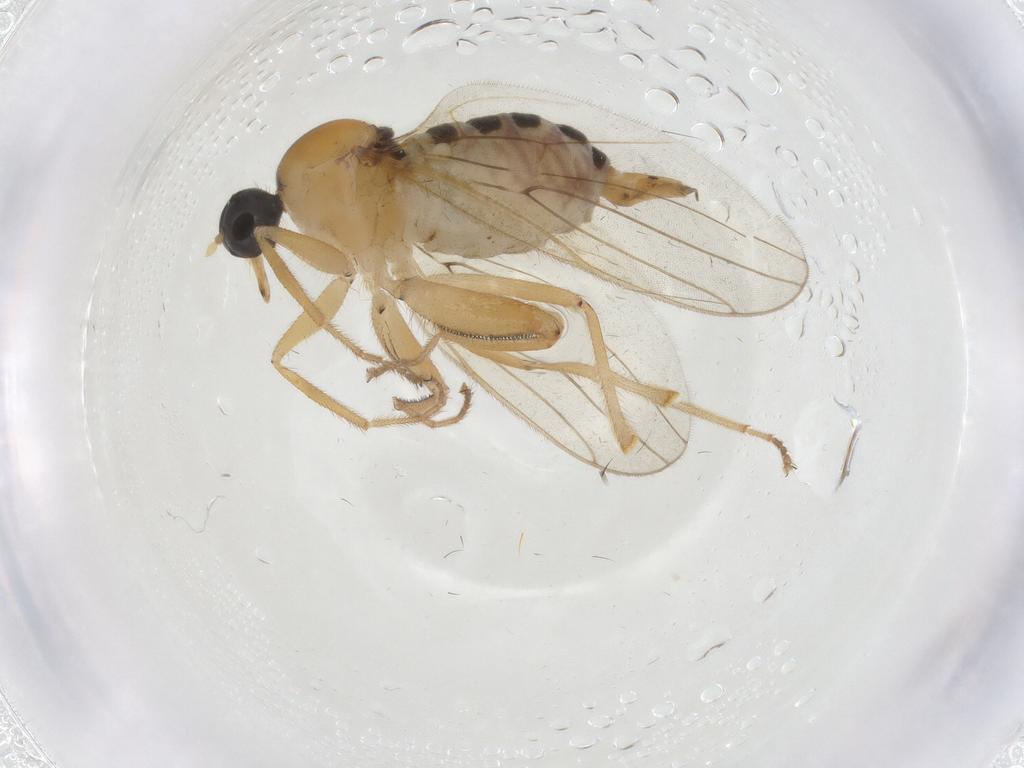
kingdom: Animalia
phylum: Arthropoda
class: Insecta
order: Diptera
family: Hybotidae
